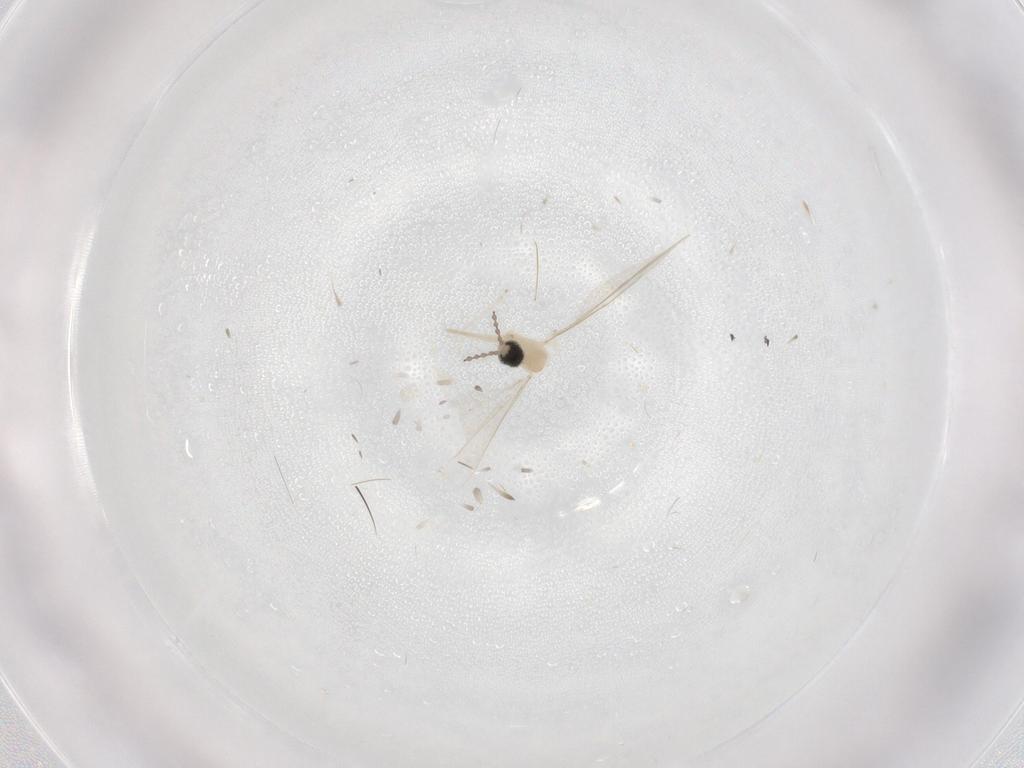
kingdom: Animalia
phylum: Arthropoda
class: Insecta
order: Diptera
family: Cecidomyiidae
